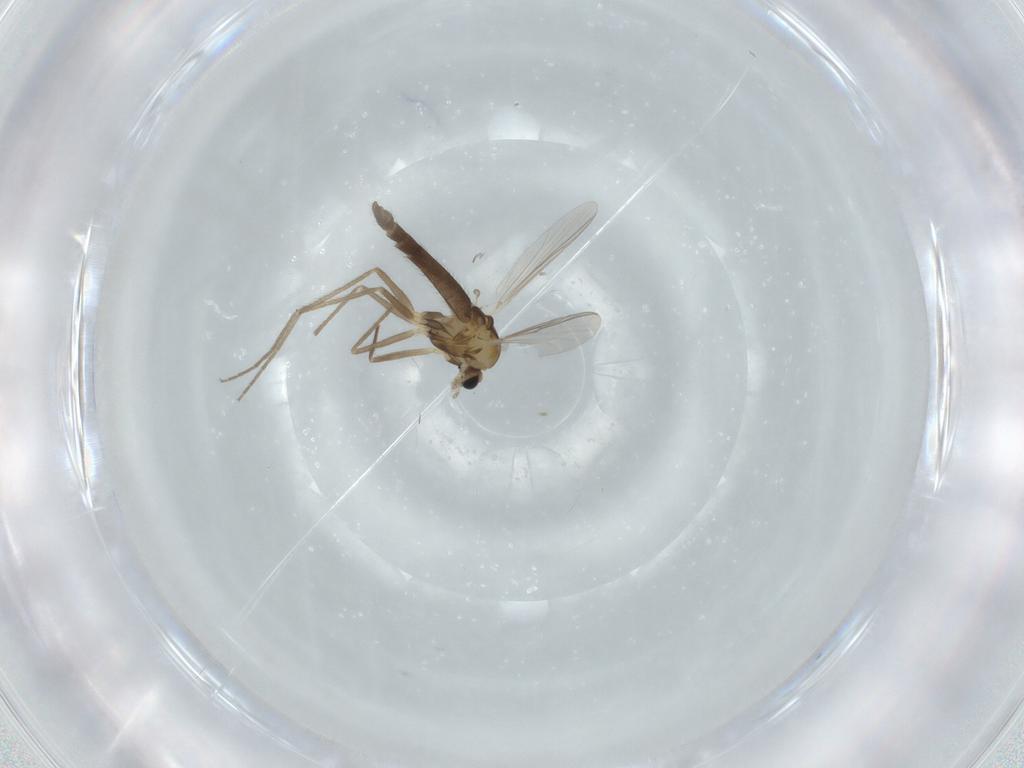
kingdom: Animalia
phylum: Arthropoda
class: Insecta
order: Diptera
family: Chironomidae
